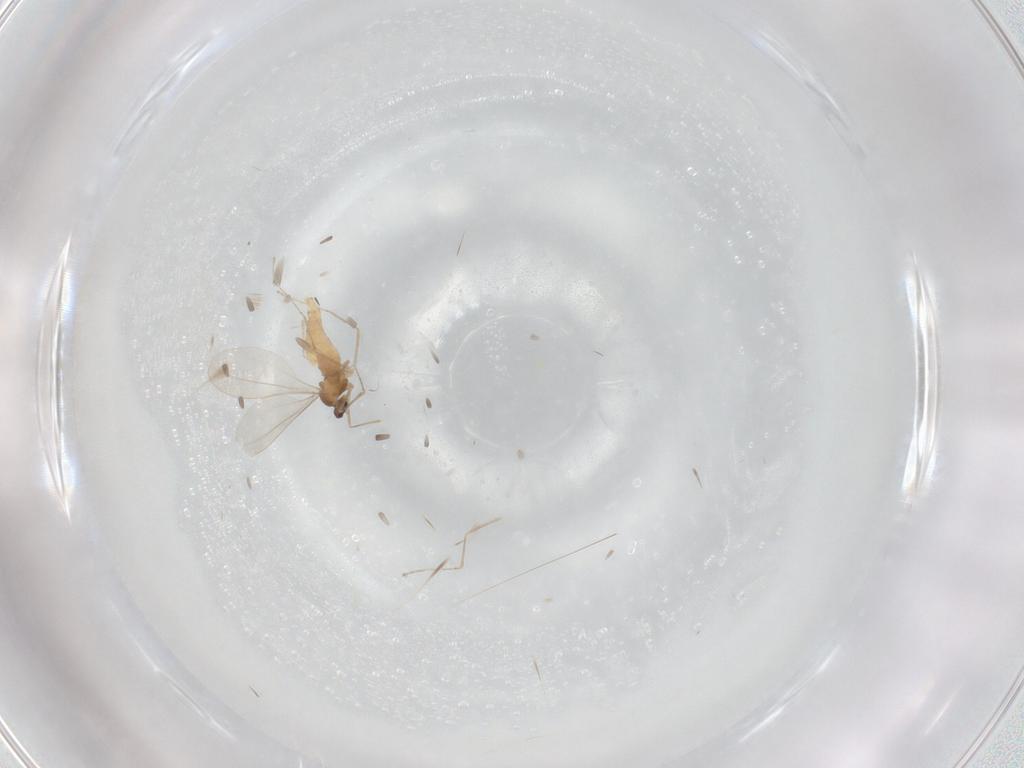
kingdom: Animalia
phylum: Arthropoda
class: Insecta
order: Diptera
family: Cecidomyiidae
